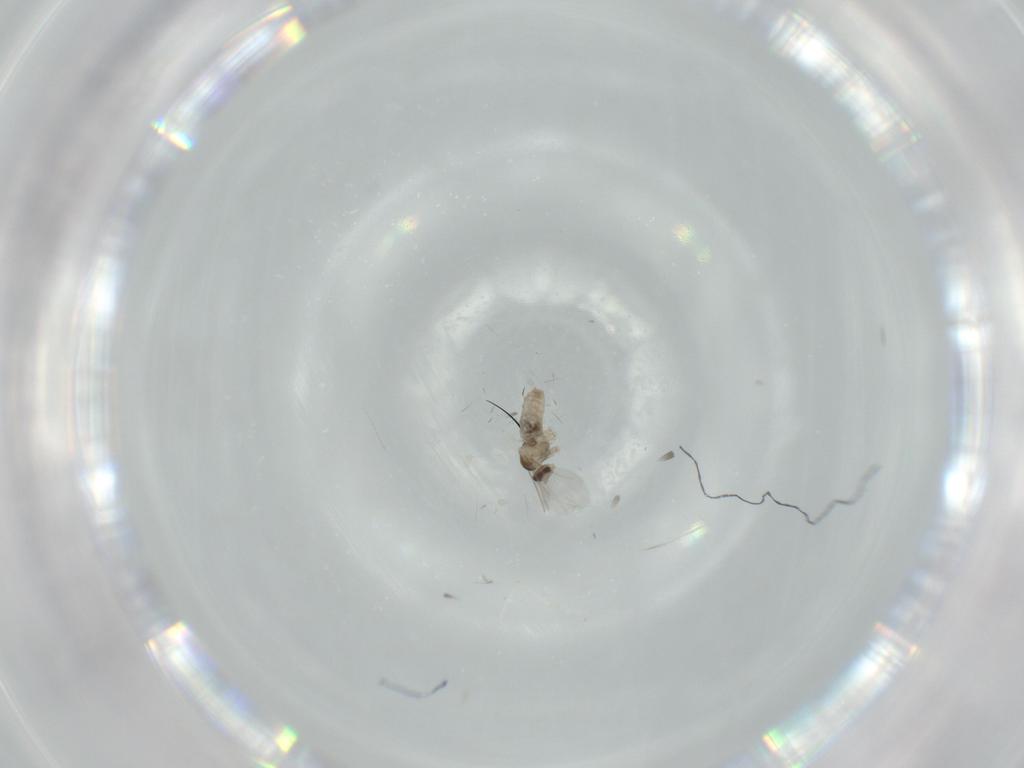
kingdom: Animalia
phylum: Arthropoda
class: Insecta
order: Diptera
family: Cecidomyiidae
